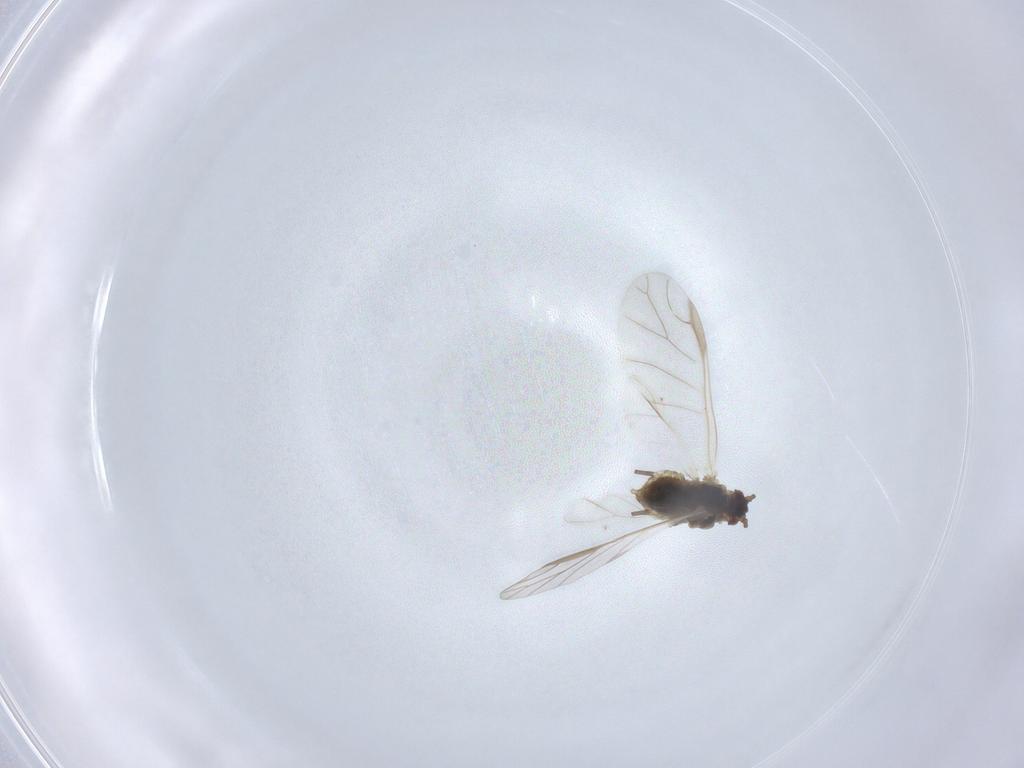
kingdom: Animalia
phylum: Arthropoda
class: Insecta
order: Hemiptera
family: Aphididae
